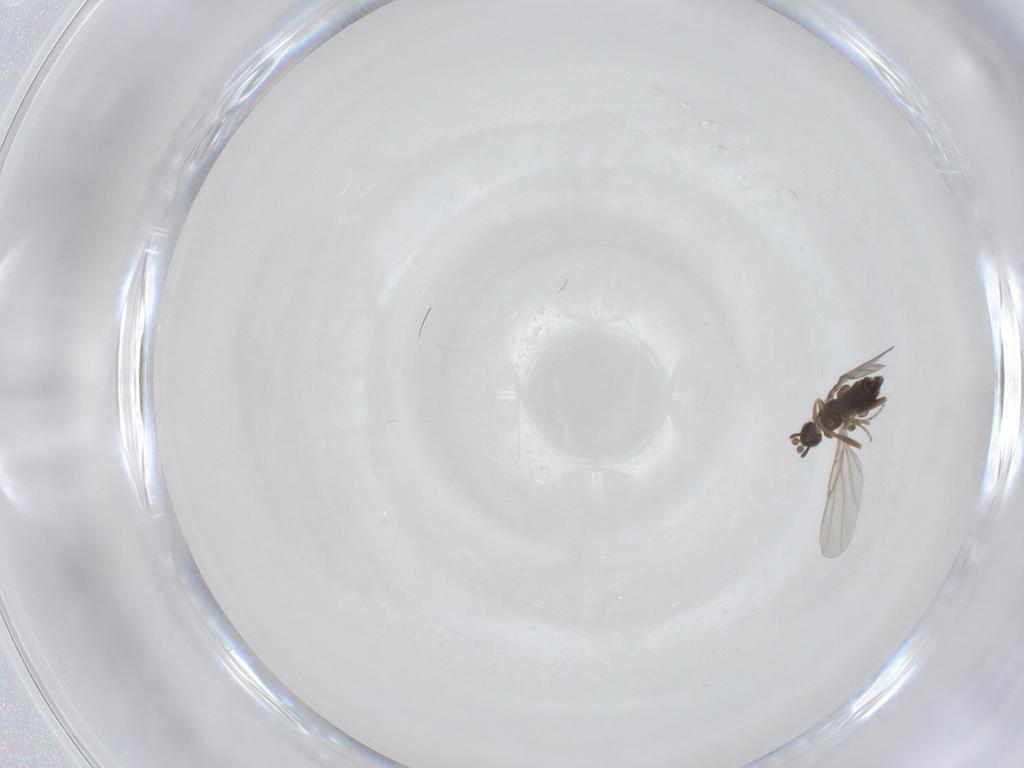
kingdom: Animalia
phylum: Arthropoda
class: Insecta
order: Diptera
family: Phoridae
